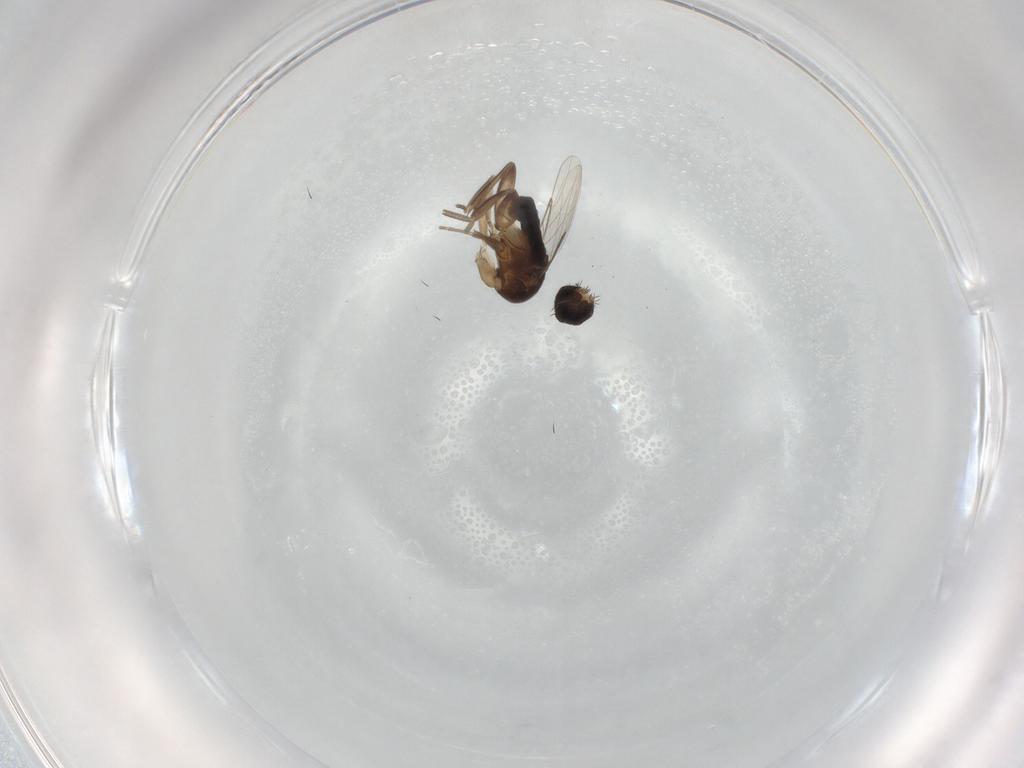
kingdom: Animalia
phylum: Arthropoda
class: Insecta
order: Diptera
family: Phoridae
